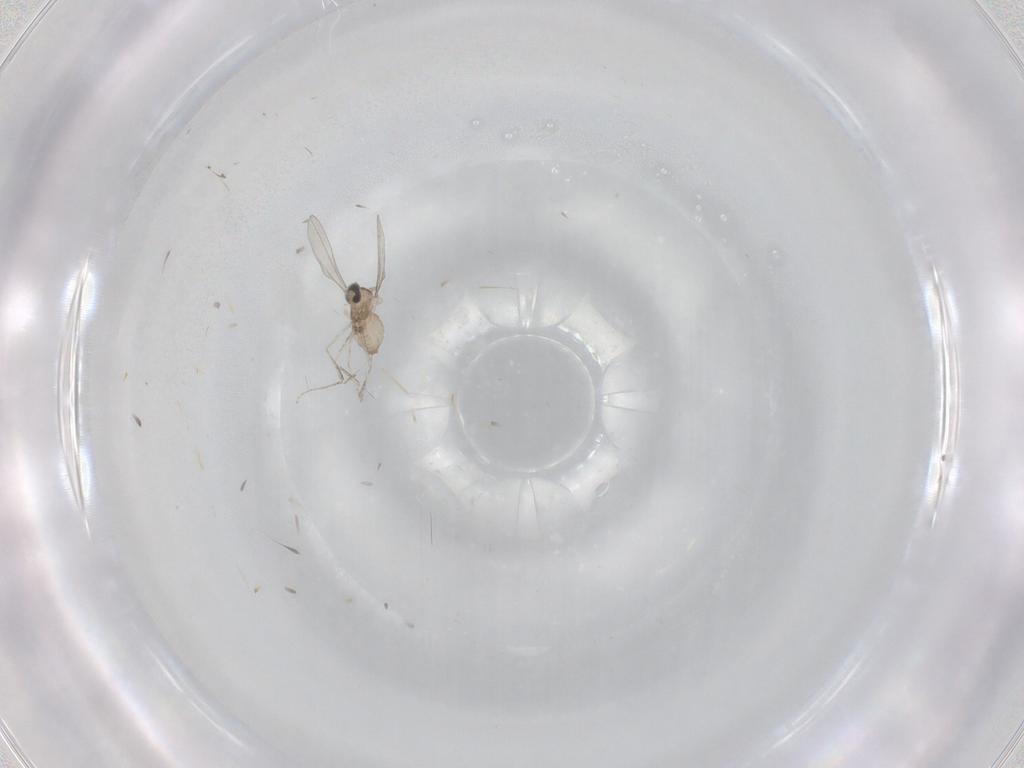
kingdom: Animalia
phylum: Arthropoda
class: Insecta
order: Diptera
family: Cecidomyiidae
